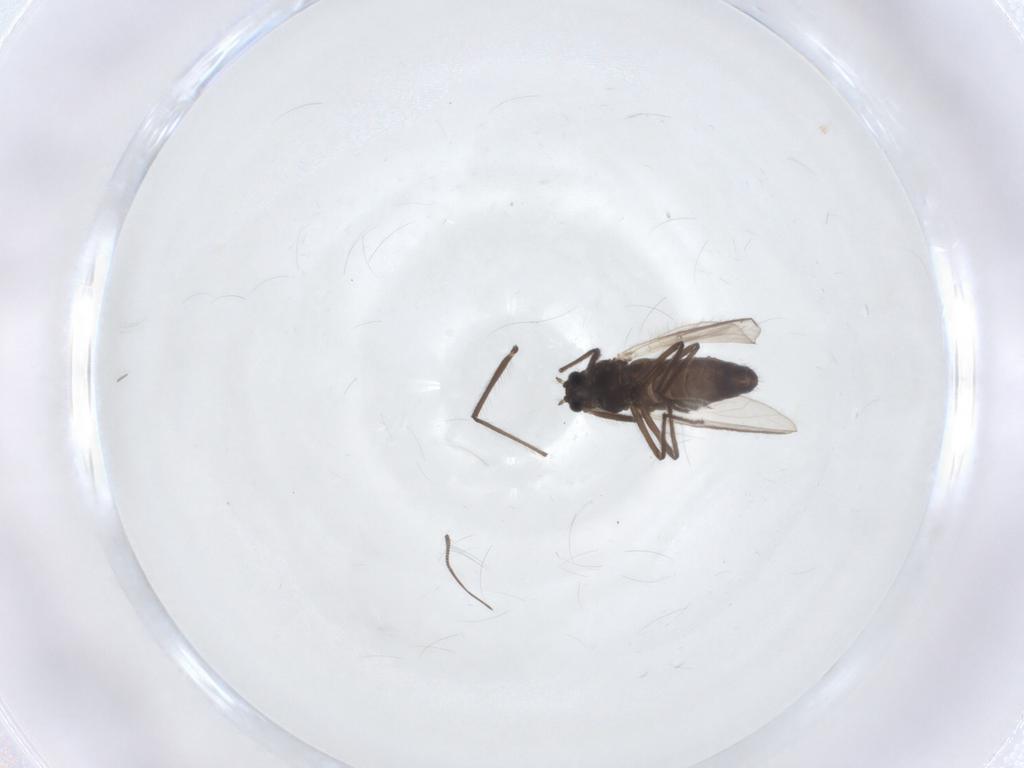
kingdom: Animalia
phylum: Arthropoda
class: Insecta
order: Diptera
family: Chironomidae
